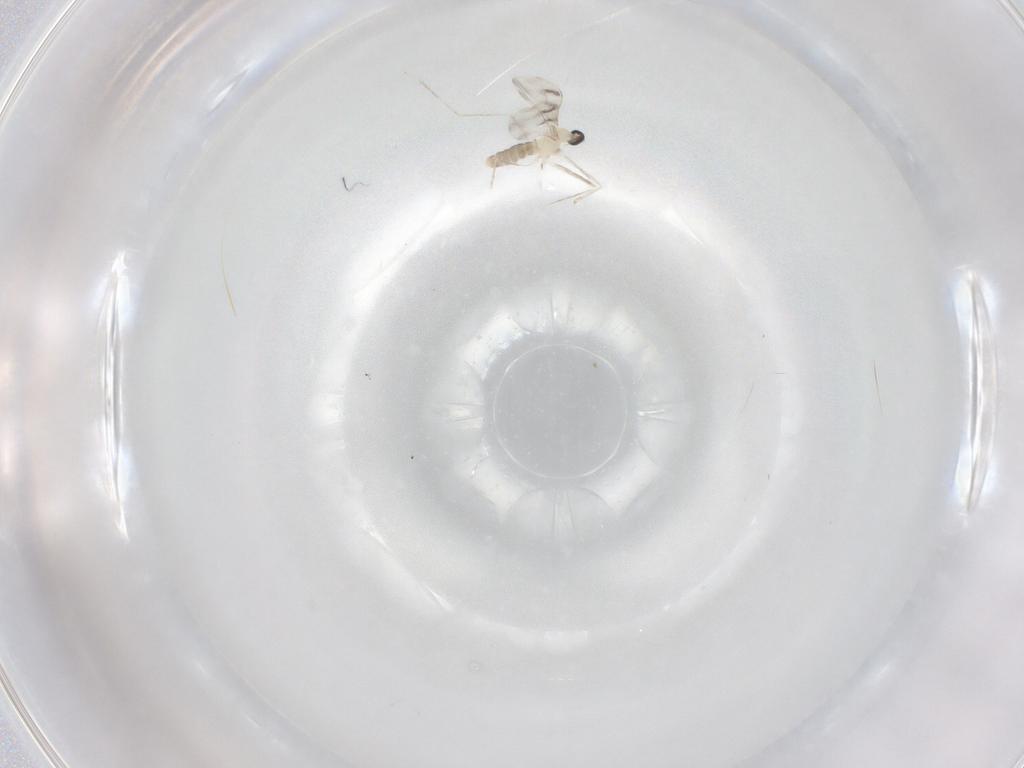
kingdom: Animalia
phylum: Arthropoda
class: Insecta
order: Diptera
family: Cecidomyiidae
